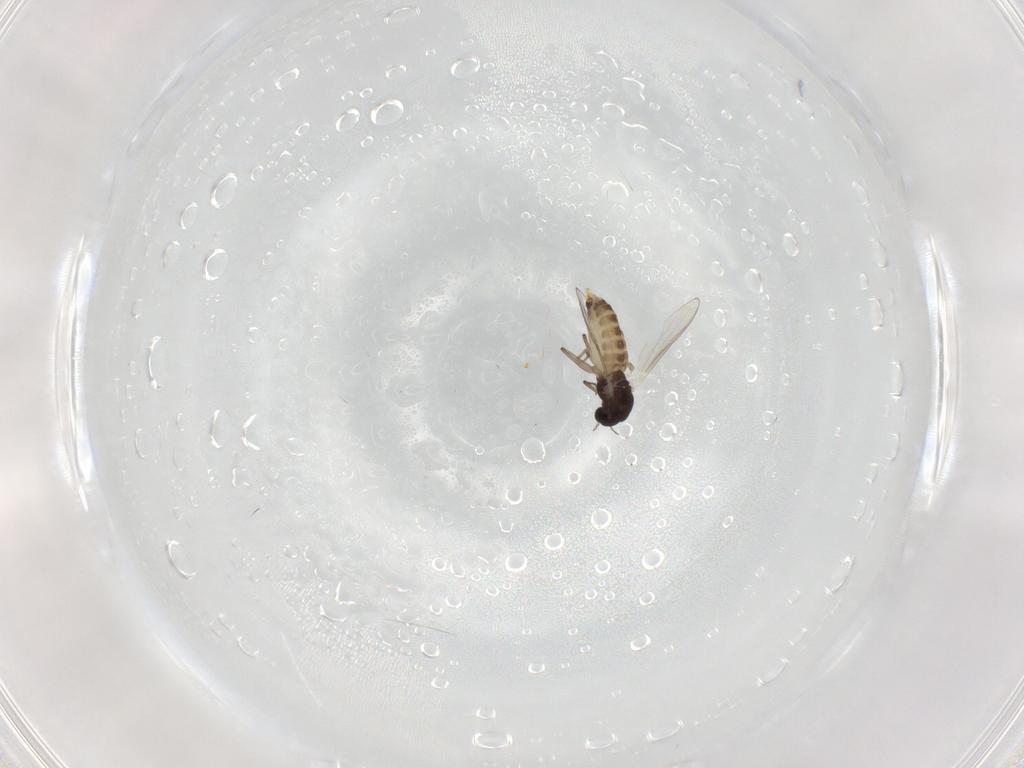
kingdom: Animalia
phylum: Arthropoda
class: Insecta
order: Diptera
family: Chironomidae
